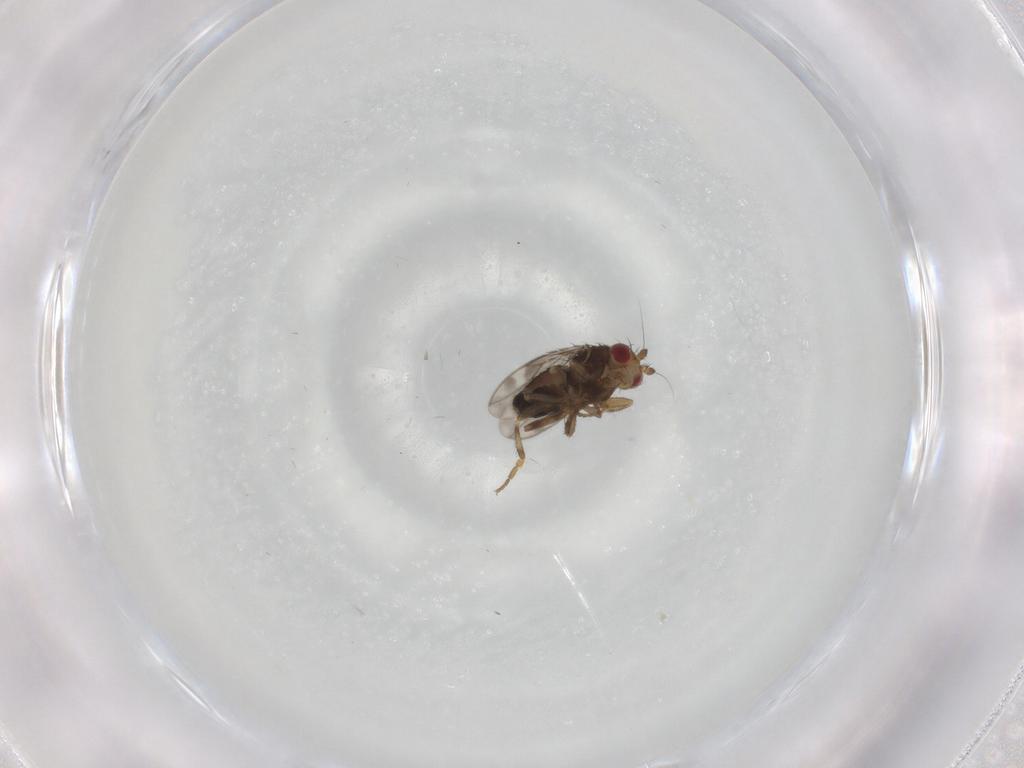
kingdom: Animalia
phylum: Arthropoda
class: Insecta
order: Diptera
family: Sphaeroceridae
